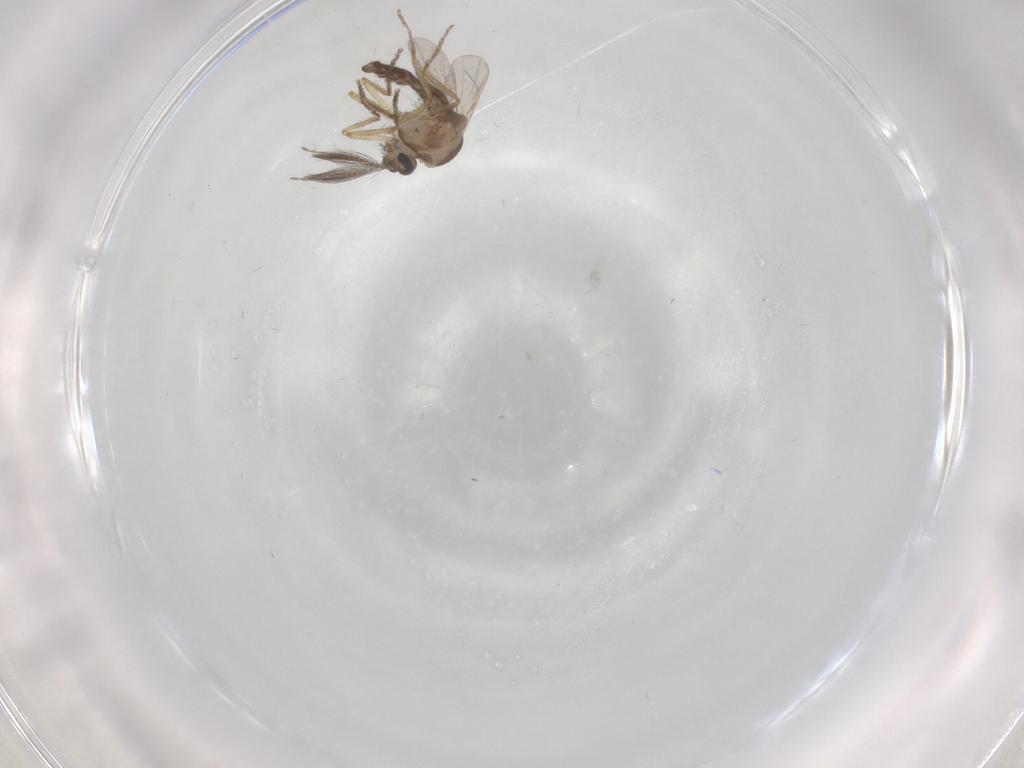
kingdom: Animalia
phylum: Arthropoda
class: Insecta
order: Diptera
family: Ceratopogonidae
